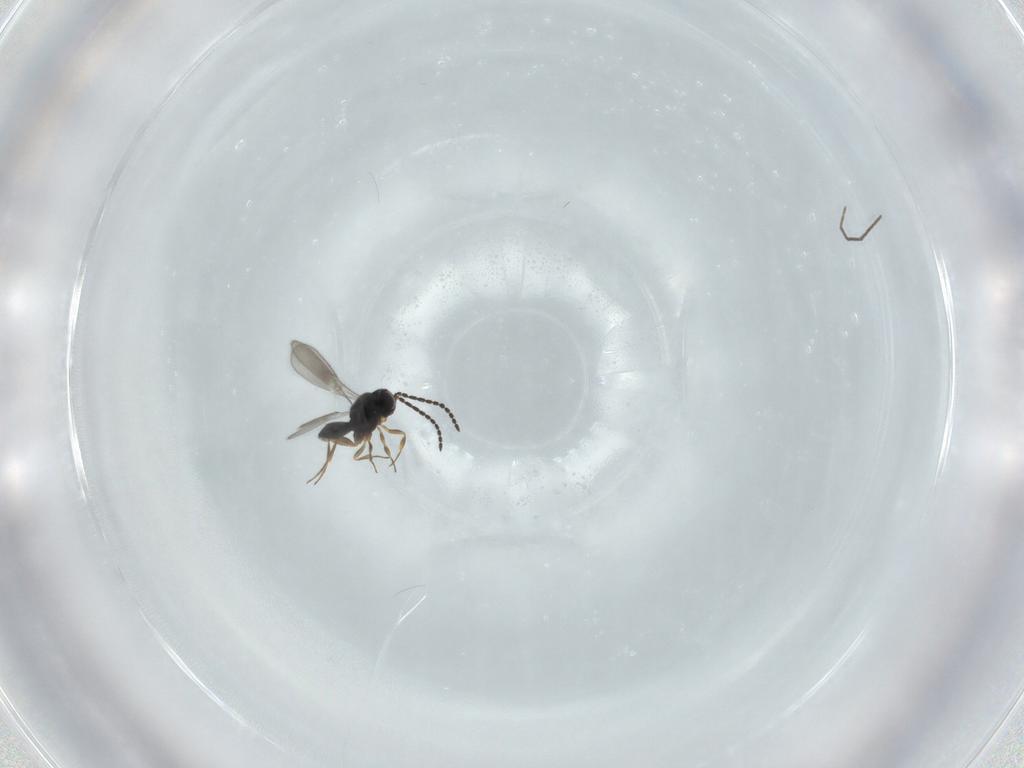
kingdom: Animalia
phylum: Arthropoda
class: Insecta
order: Hymenoptera
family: Scelionidae
